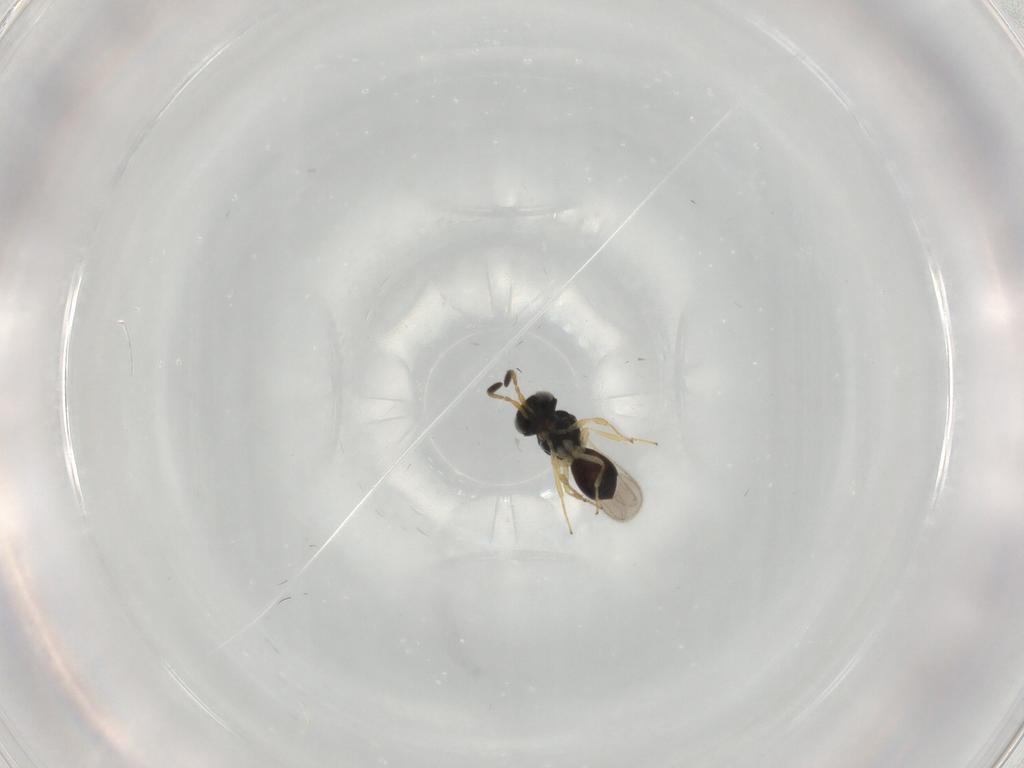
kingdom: Animalia
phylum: Arthropoda
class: Insecta
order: Hymenoptera
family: Scelionidae
